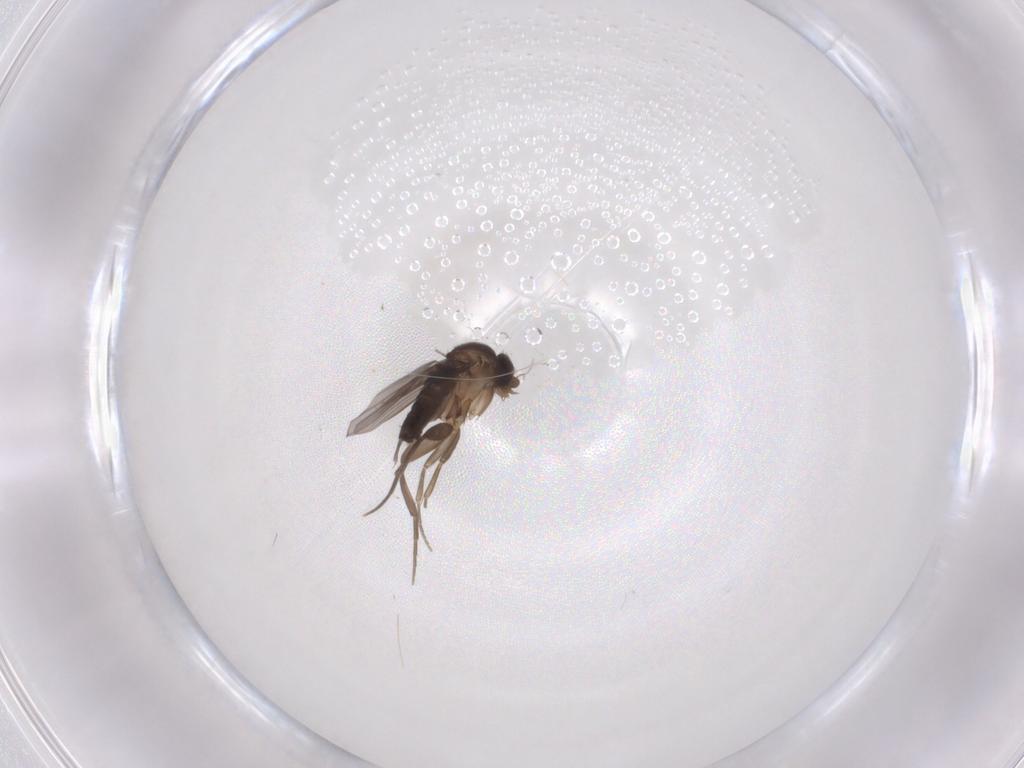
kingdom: Animalia
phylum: Arthropoda
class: Insecta
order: Diptera
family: Phoridae
